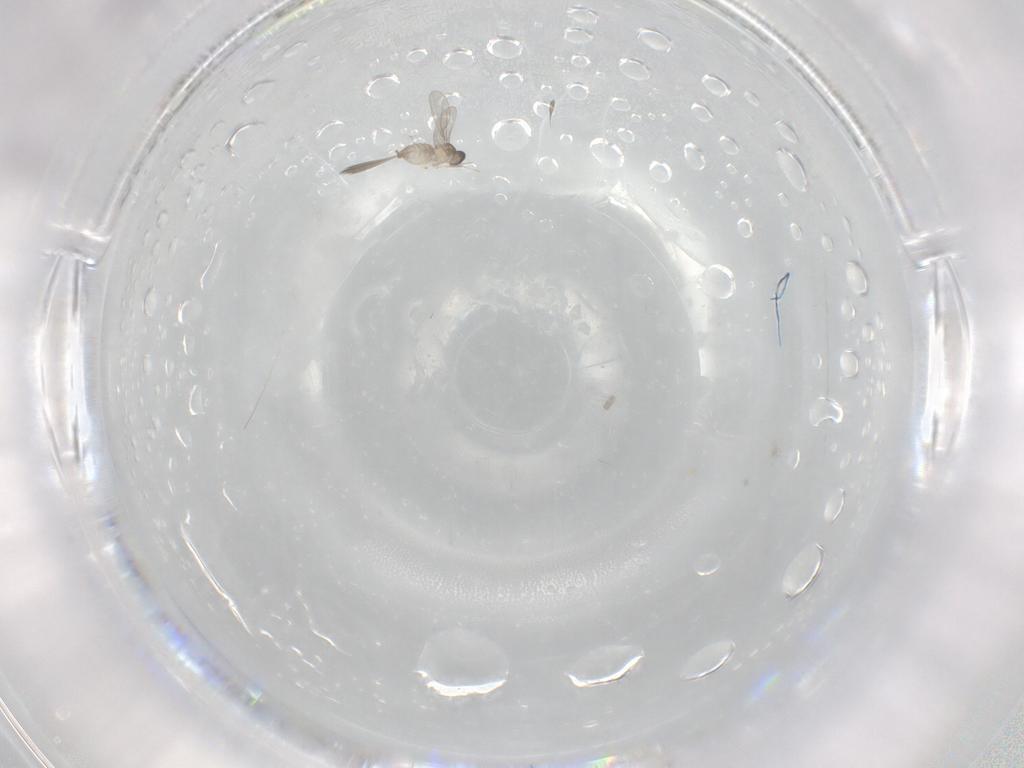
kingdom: Animalia
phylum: Arthropoda
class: Insecta
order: Diptera
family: Cecidomyiidae
